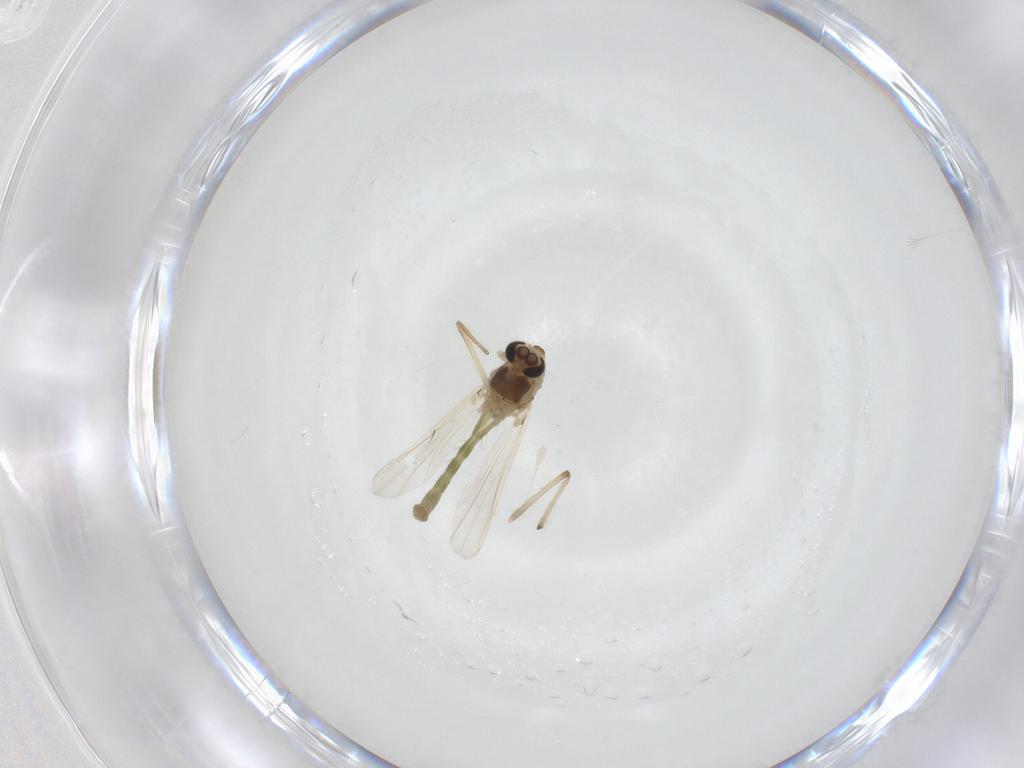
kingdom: Animalia
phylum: Arthropoda
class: Insecta
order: Diptera
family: Chironomidae
